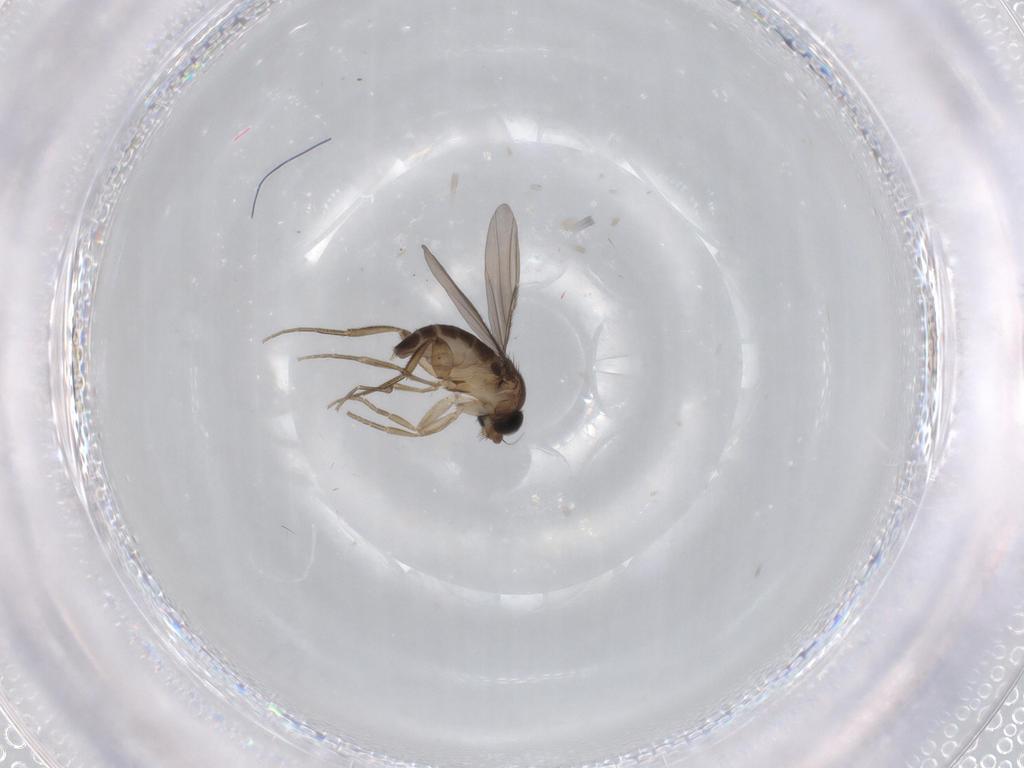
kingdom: Animalia
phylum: Arthropoda
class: Insecta
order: Diptera
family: Phoridae
